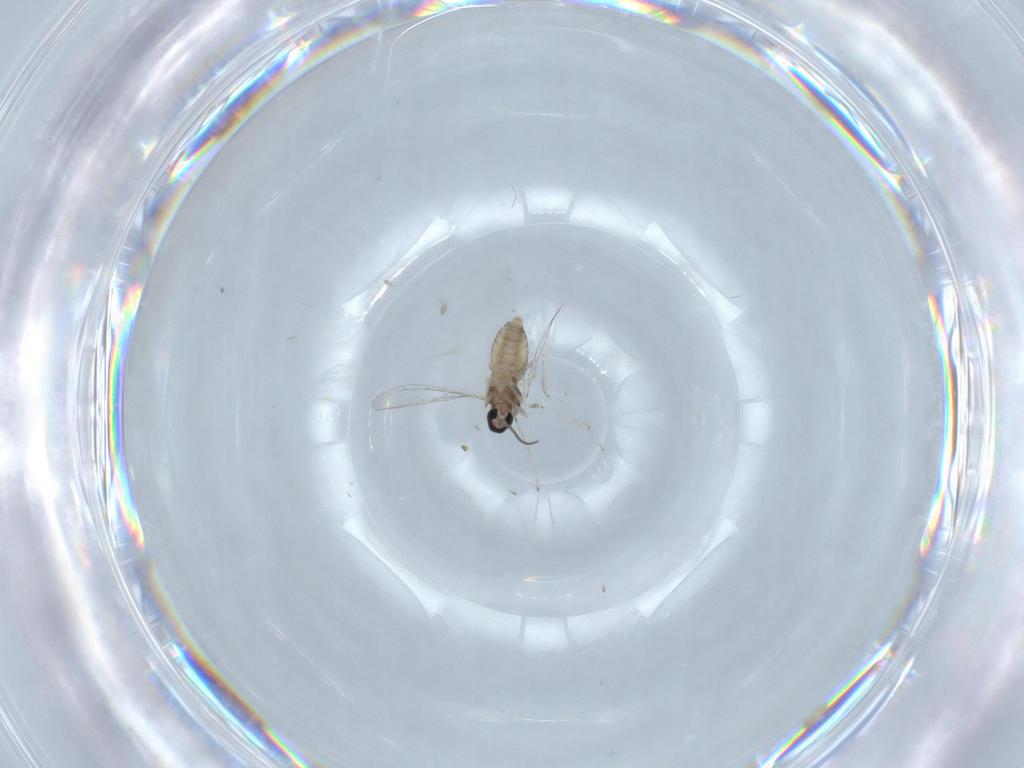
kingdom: Animalia
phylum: Arthropoda
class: Insecta
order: Diptera
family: Cecidomyiidae
